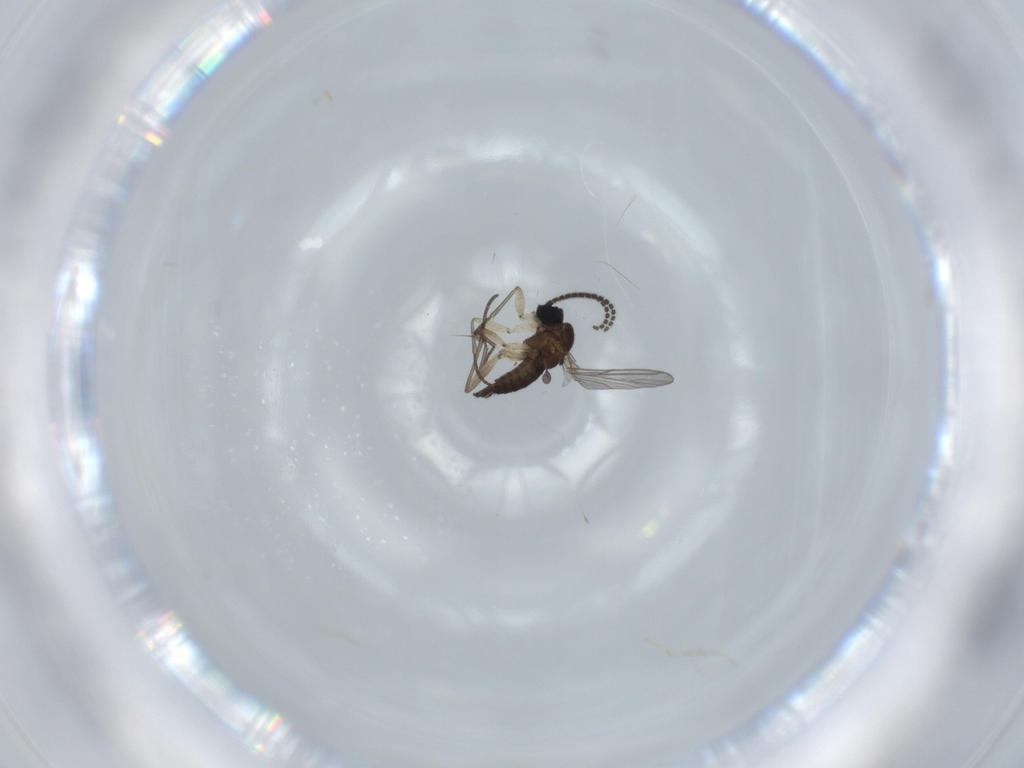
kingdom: Animalia
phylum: Arthropoda
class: Insecta
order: Diptera
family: Sciaridae
